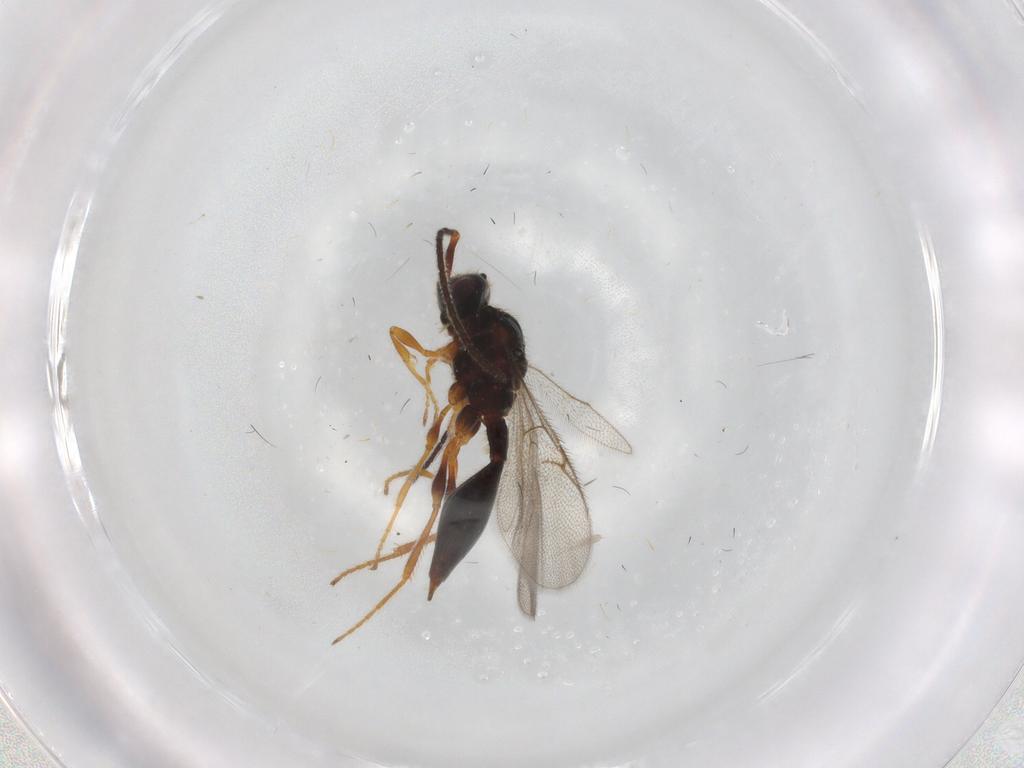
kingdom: Animalia
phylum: Arthropoda
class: Insecta
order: Hymenoptera
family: Diapriidae
